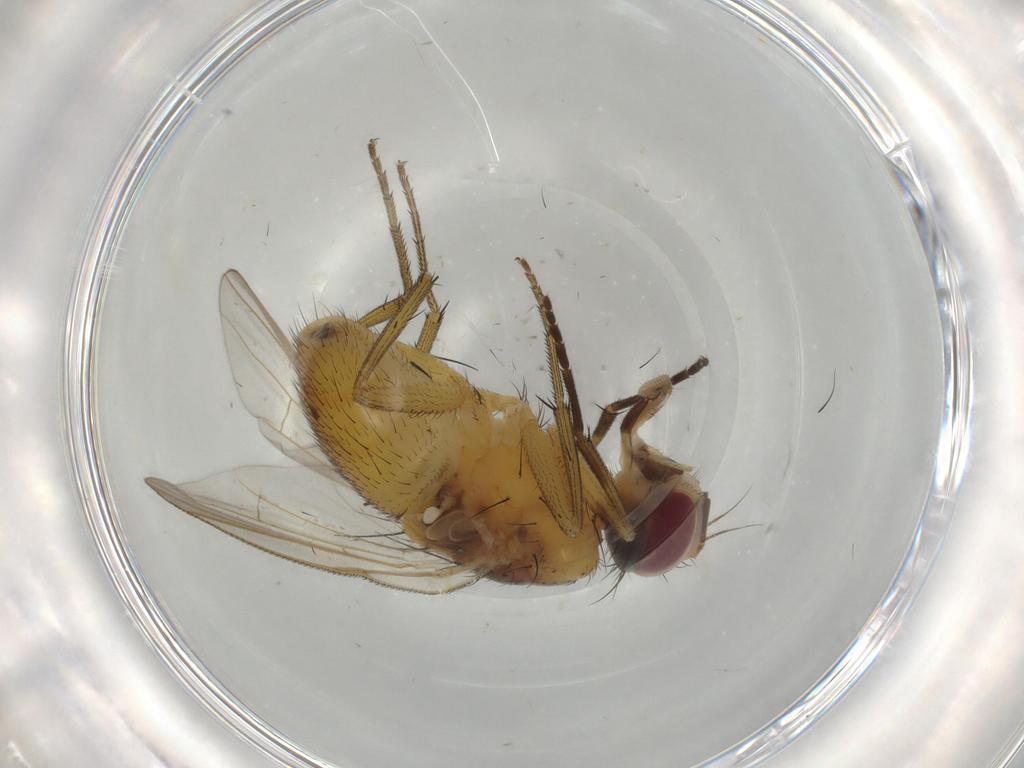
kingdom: Animalia
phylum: Arthropoda
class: Insecta
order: Diptera
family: Muscidae
